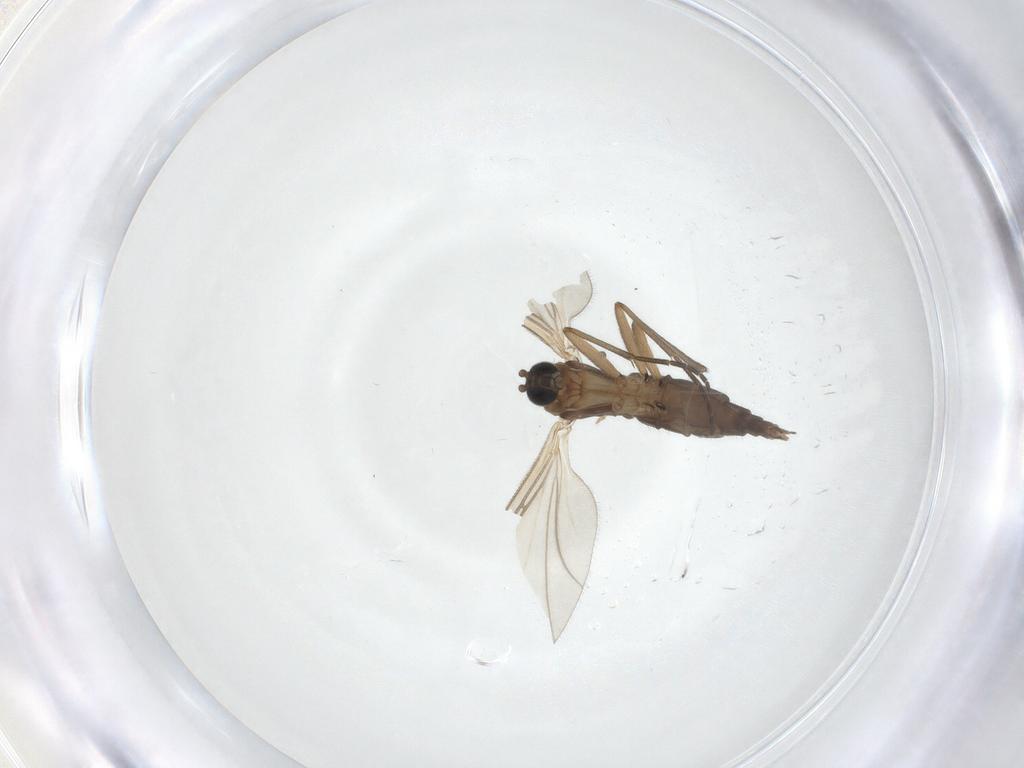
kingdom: Animalia
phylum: Arthropoda
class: Insecta
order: Diptera
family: Sciaridae
